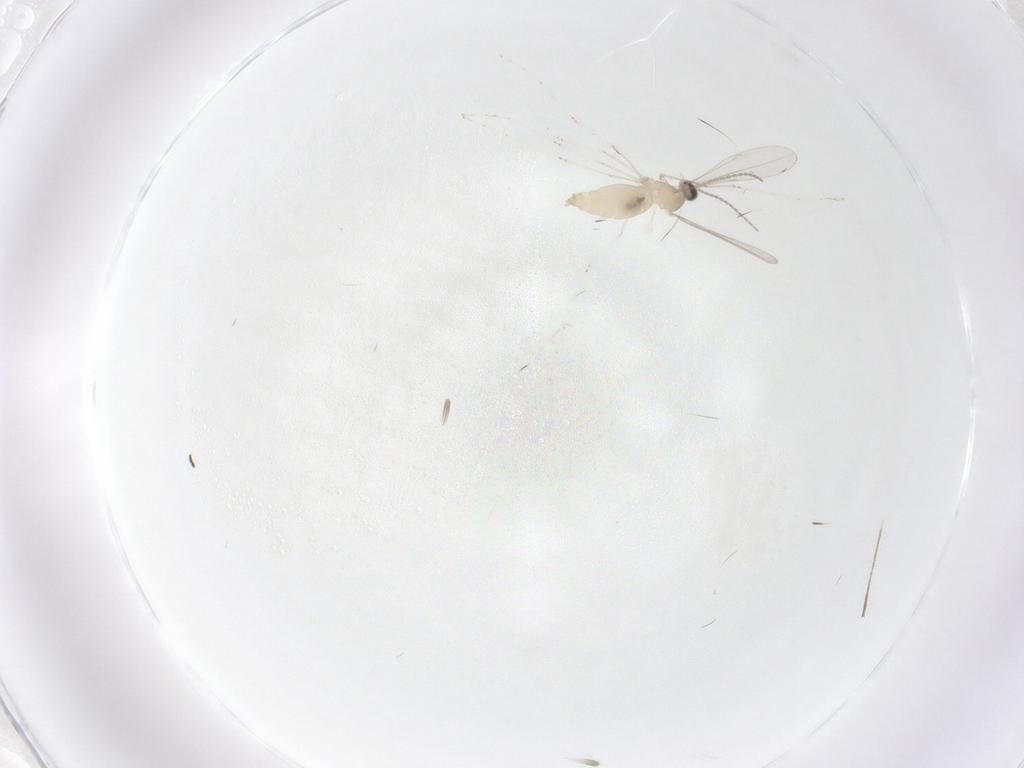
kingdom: Animalia
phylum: Arthropoda
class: Insecta
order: Diptera
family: Cecidomyiidae
